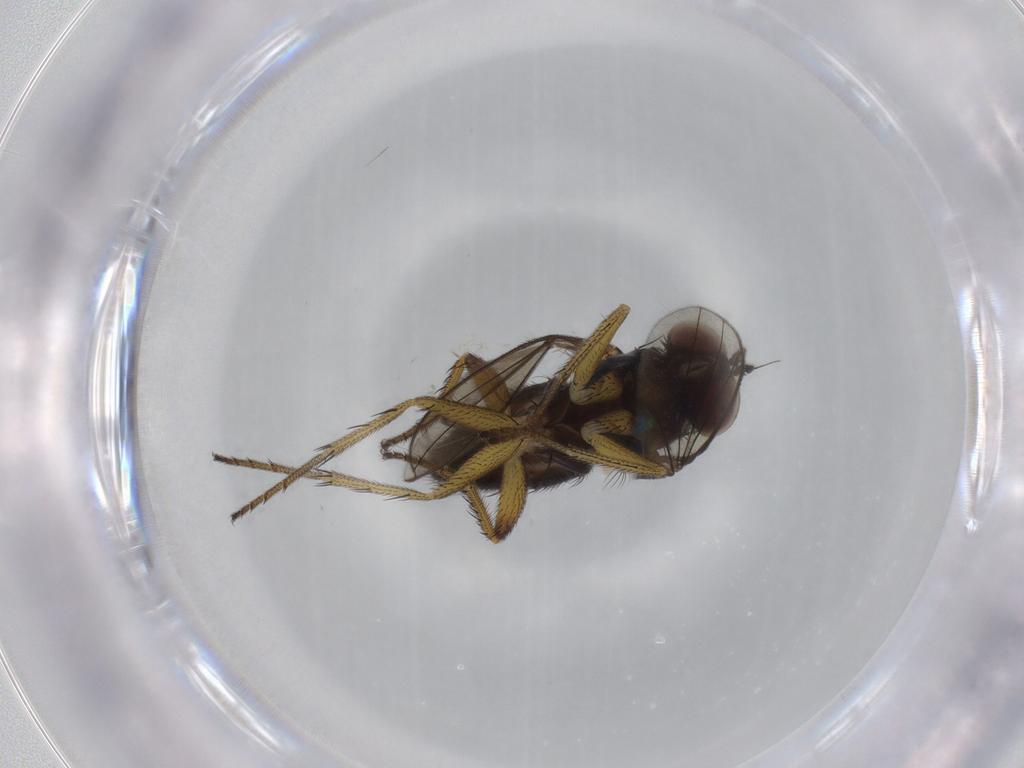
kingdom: Animalia
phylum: Arthropoda
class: Insecta
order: Diptera
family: Dolichopodidae
